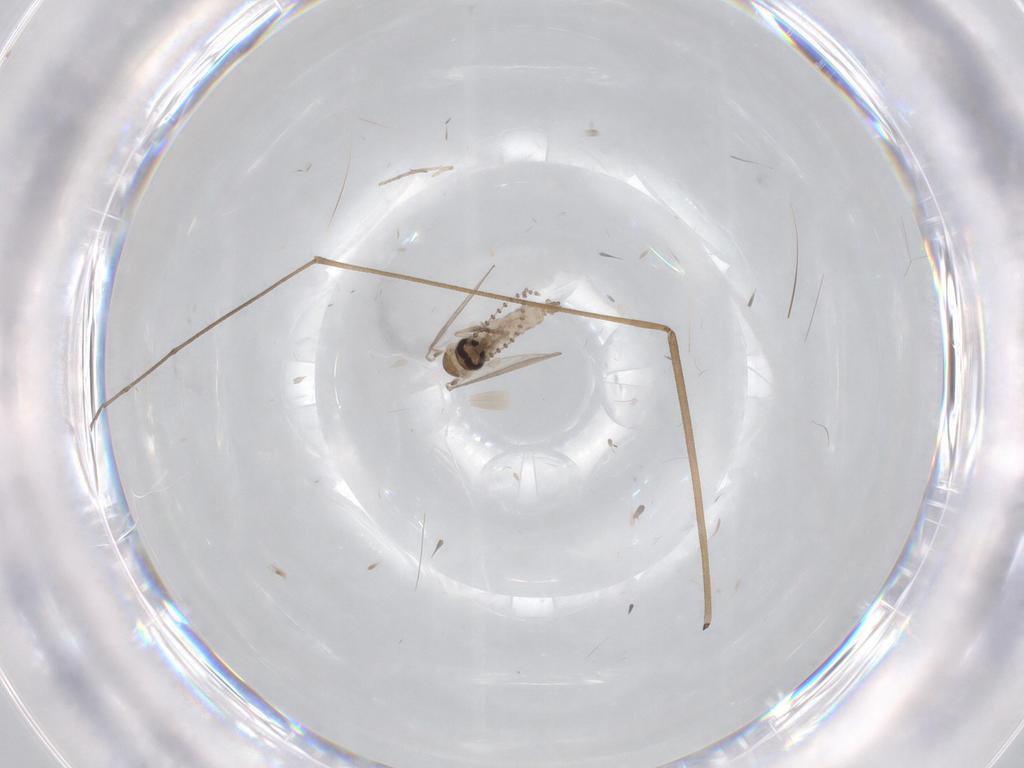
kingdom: Animalia
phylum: Arthropoda
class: Insecta
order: Diptera
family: Psychodidae
